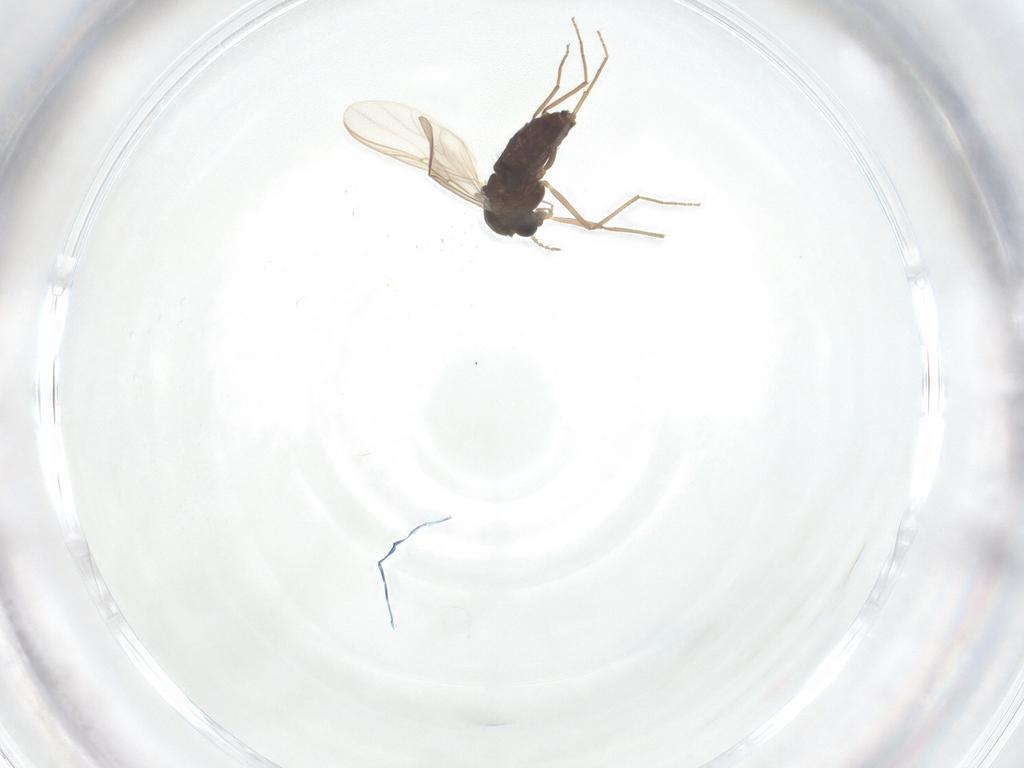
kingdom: Animalia
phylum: Arthropoda
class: Insecta
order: Diptera
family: Chironomidae
